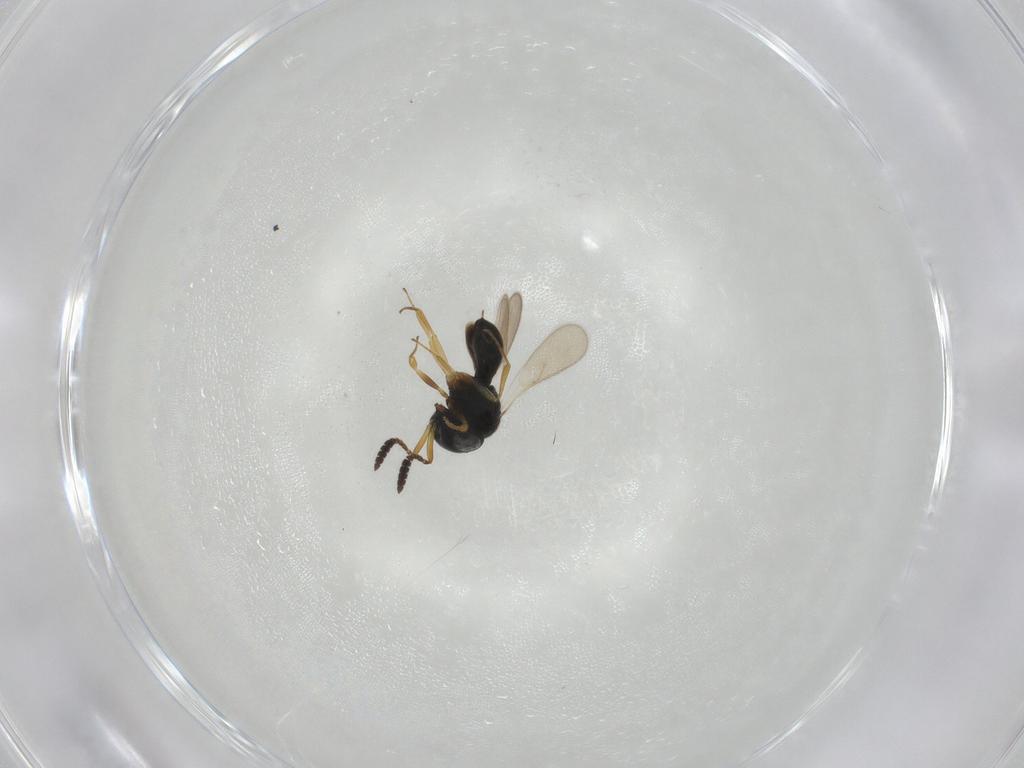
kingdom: Animalia
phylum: Arthropoda
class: Insecta
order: Hymenoptera
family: Scelionidae
